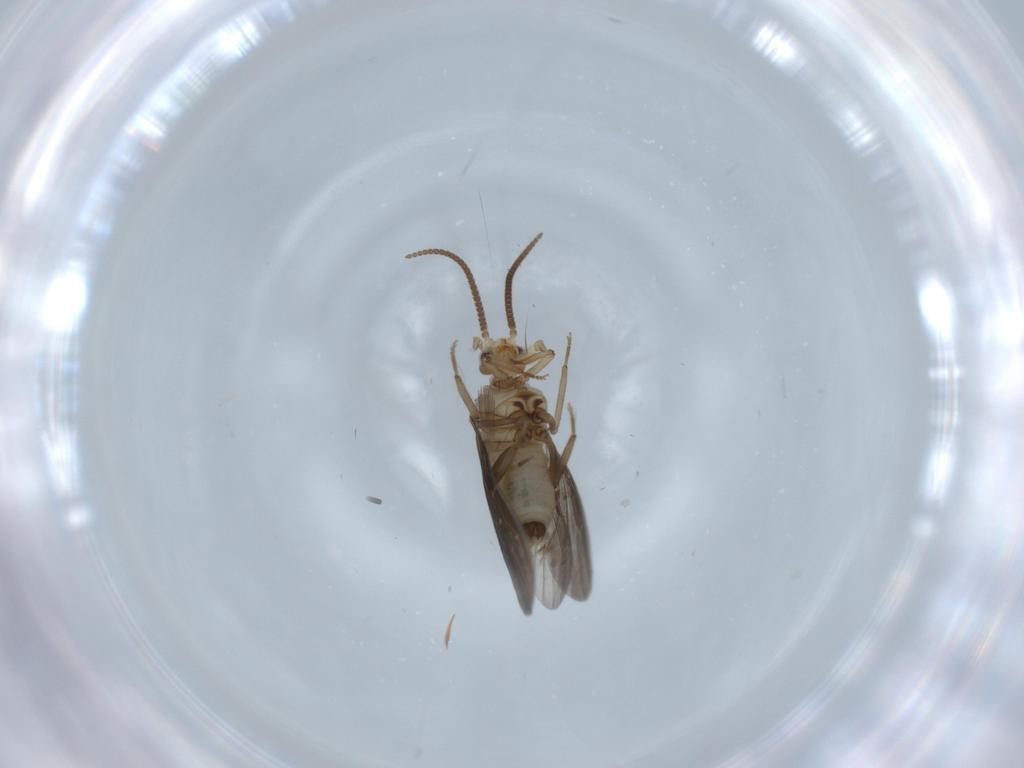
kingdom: Animalia
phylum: Arthropoda
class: Insecta
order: Neuroptera
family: Coniopterygidae
